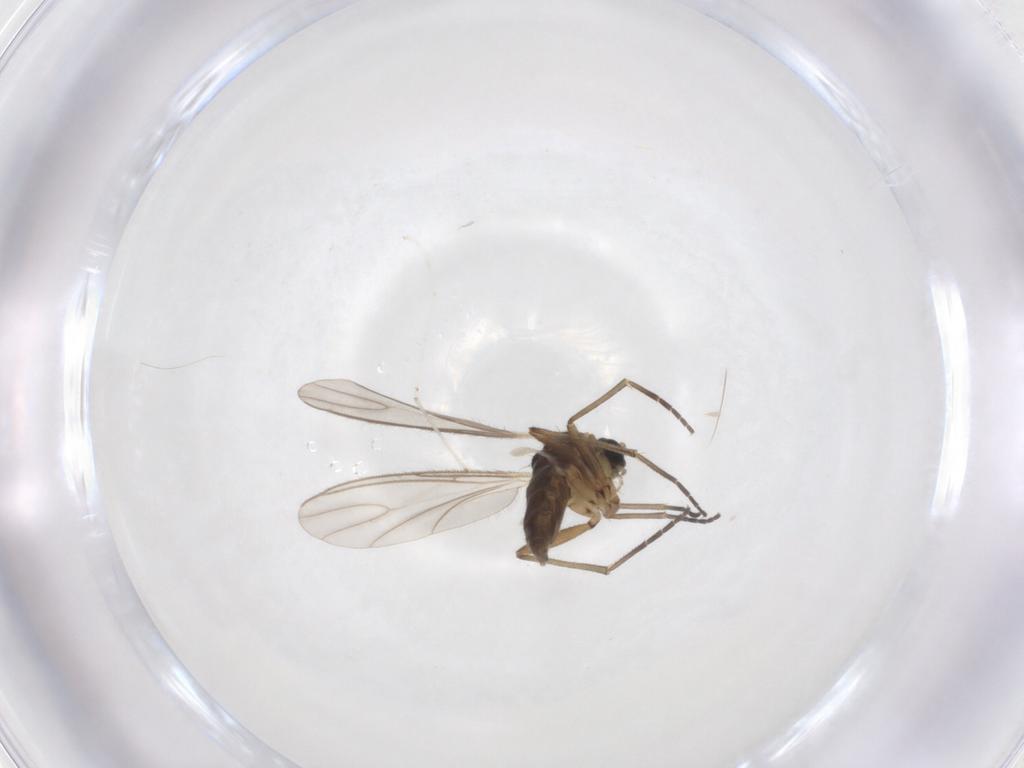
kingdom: Animalia
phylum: Arthropoda
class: Insecta
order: Diptera
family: Cecidomyiidae
